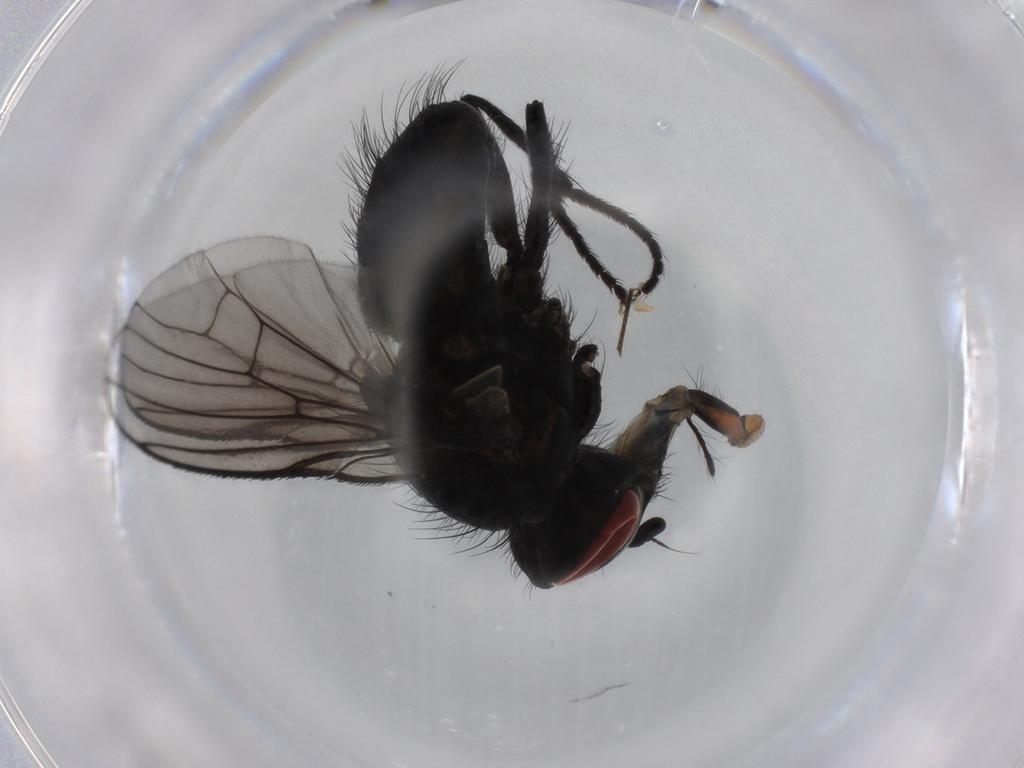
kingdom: Animalia
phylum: Arthropoda
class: Insecta
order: Diptera
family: Muscidae
